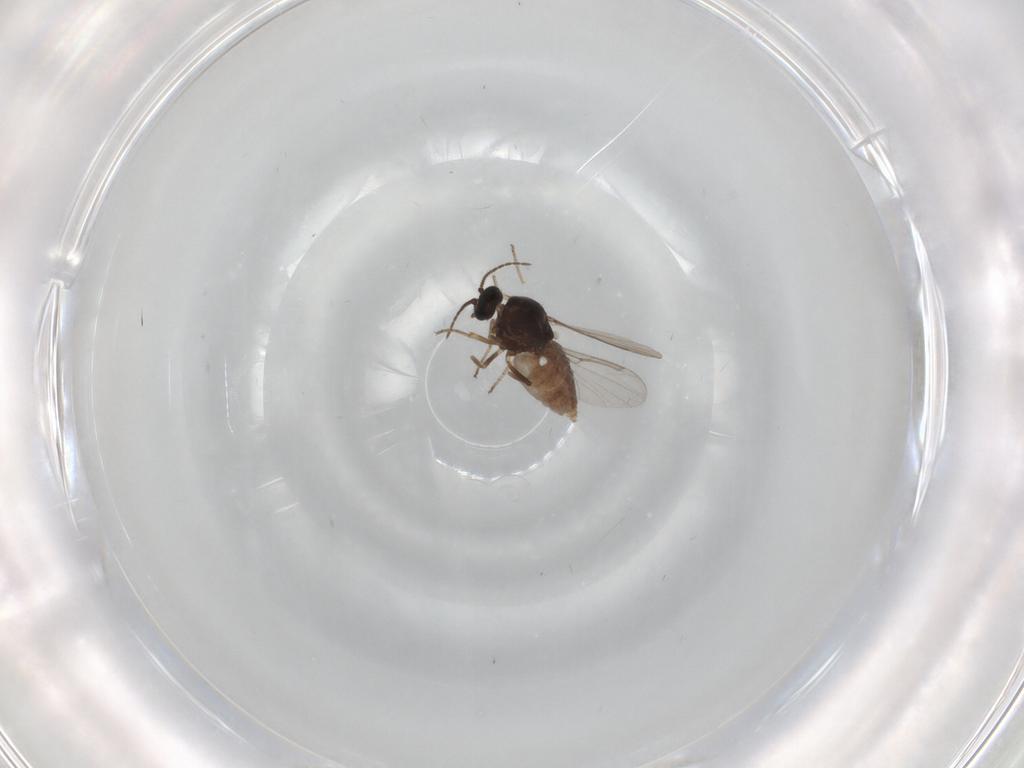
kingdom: Animalia
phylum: Arthropoda
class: Insecta
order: Diptera
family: Ceratopogonidae
